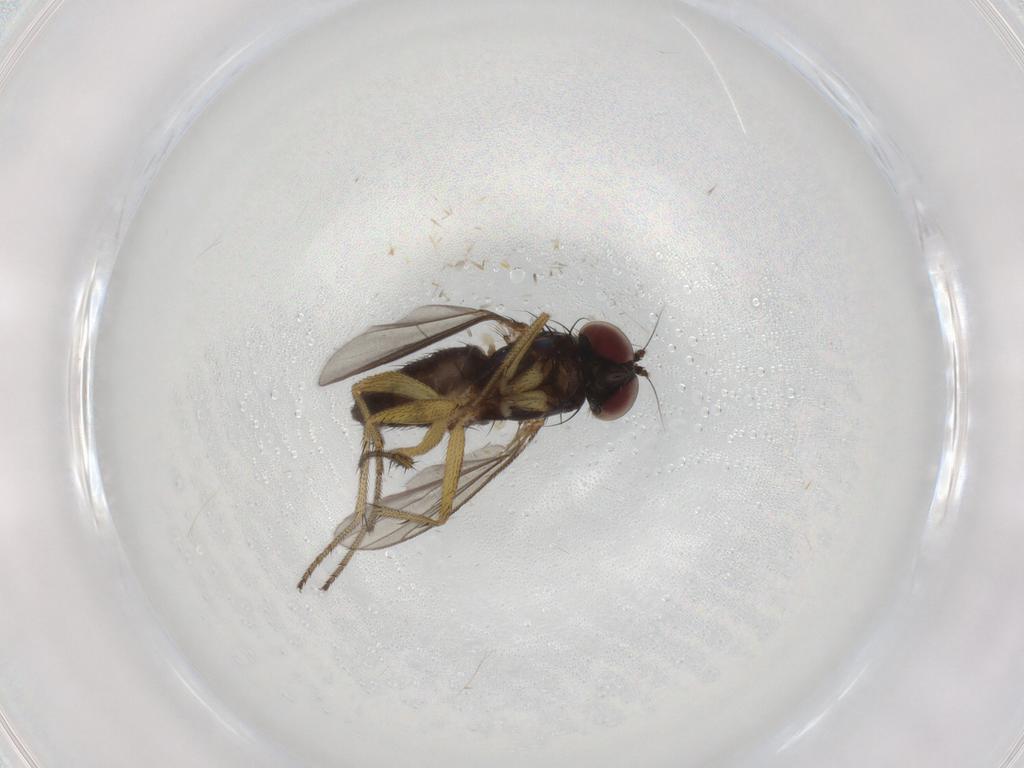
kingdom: Animalia
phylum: Arthropoda
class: Insecta
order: Diptera
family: Dolichopodidae
